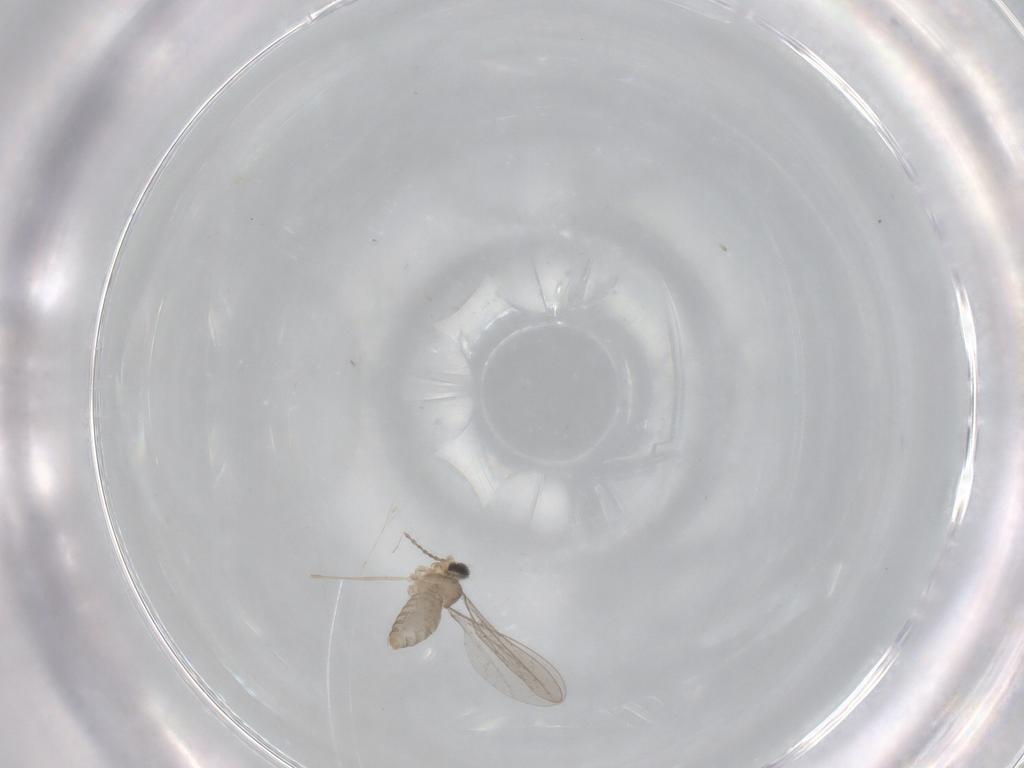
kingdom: Animalia
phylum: Arthropoda
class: Insecta
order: Diptera
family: Cecidomyiidae
